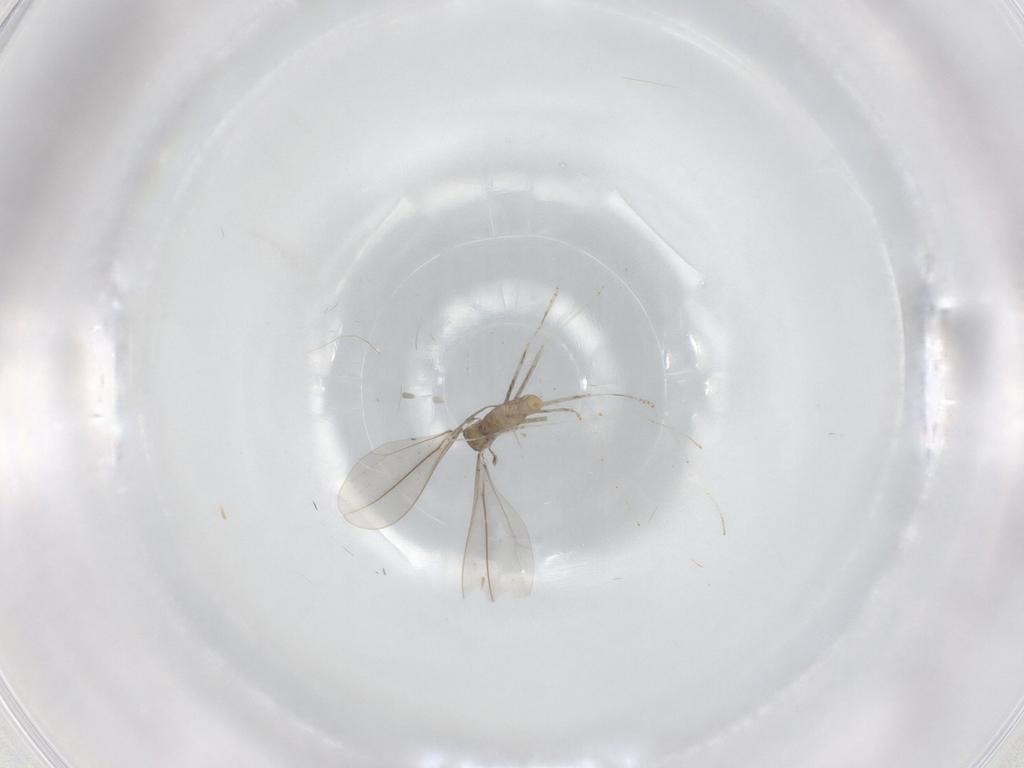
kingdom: Animalia
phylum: Arthropoda
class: Insecta
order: Diptera
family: Cecidomyiidae
